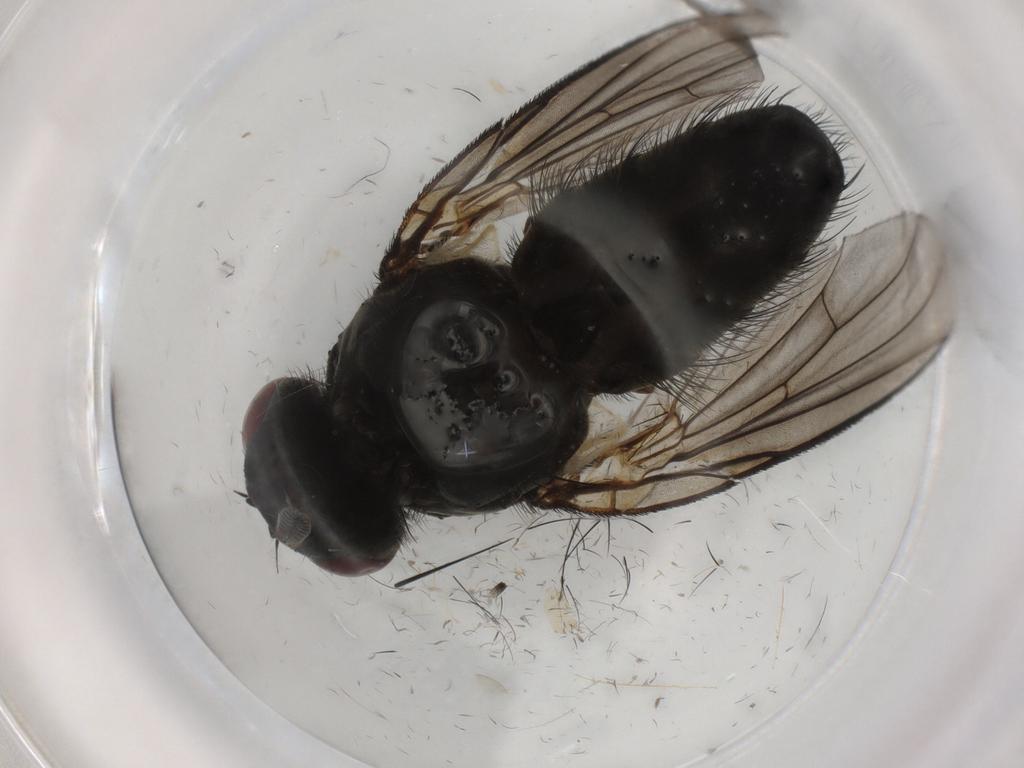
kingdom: Animalia
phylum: Arthropoda
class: Insecta
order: Diptera
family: Muscidae
